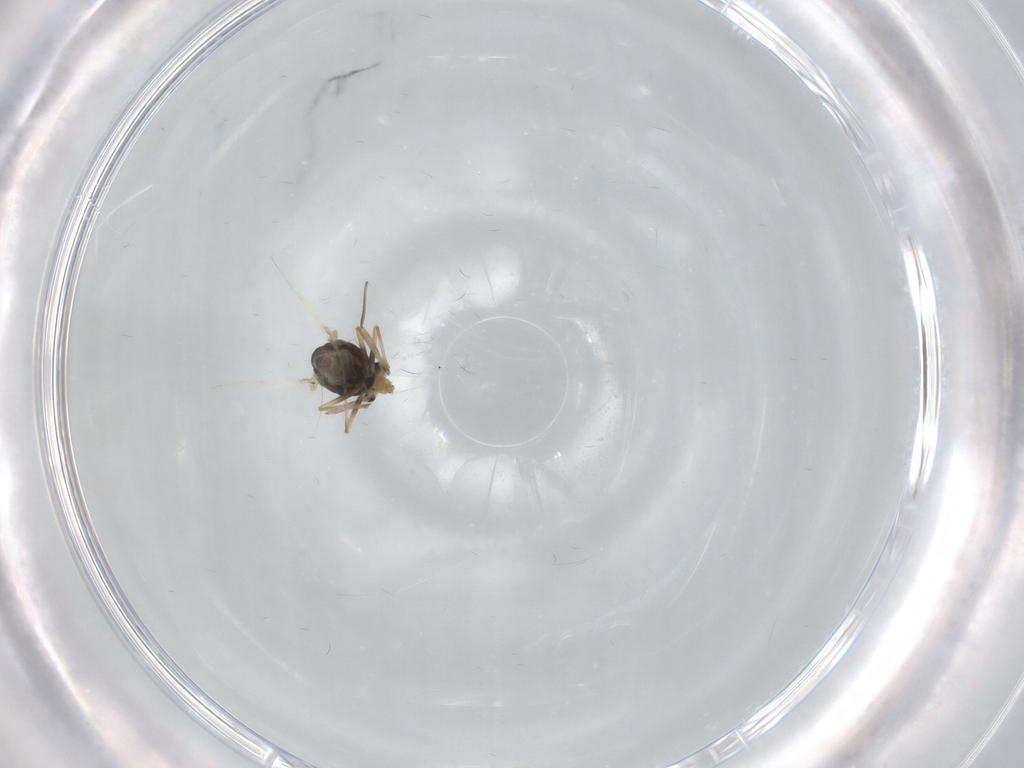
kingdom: Animalia
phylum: Arthropoda
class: Insecta
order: Diptera
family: Chironomidae
